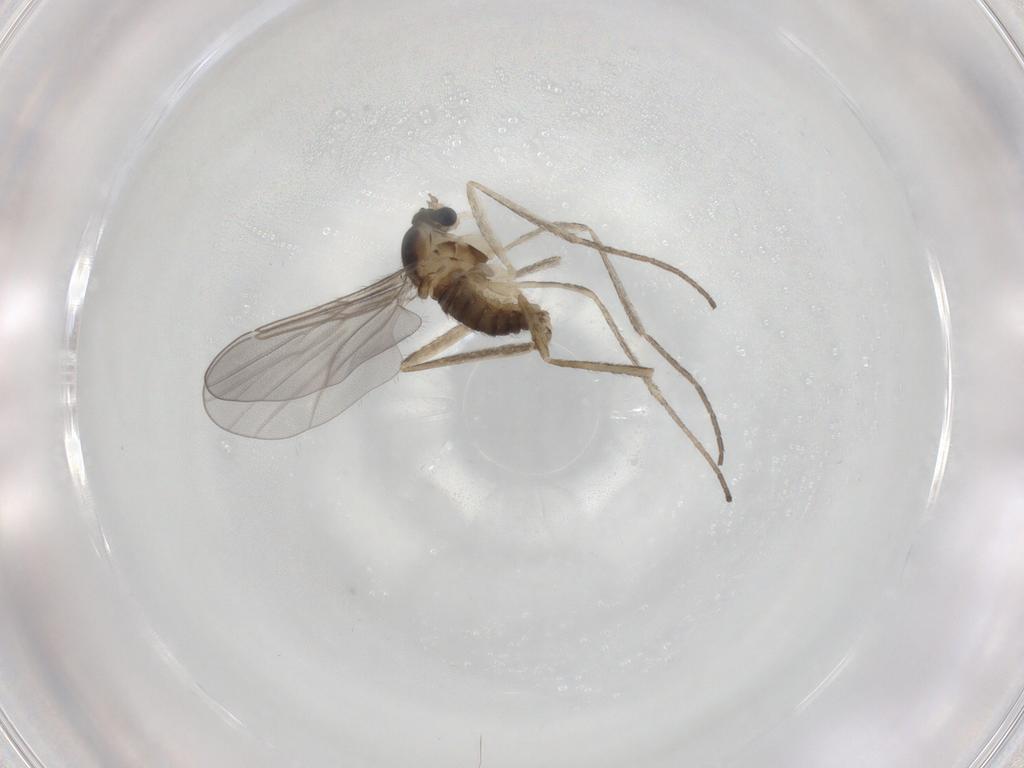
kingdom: Animalia
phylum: Arthropoda
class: Insecta
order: Diptera
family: Cecidomyiidae
